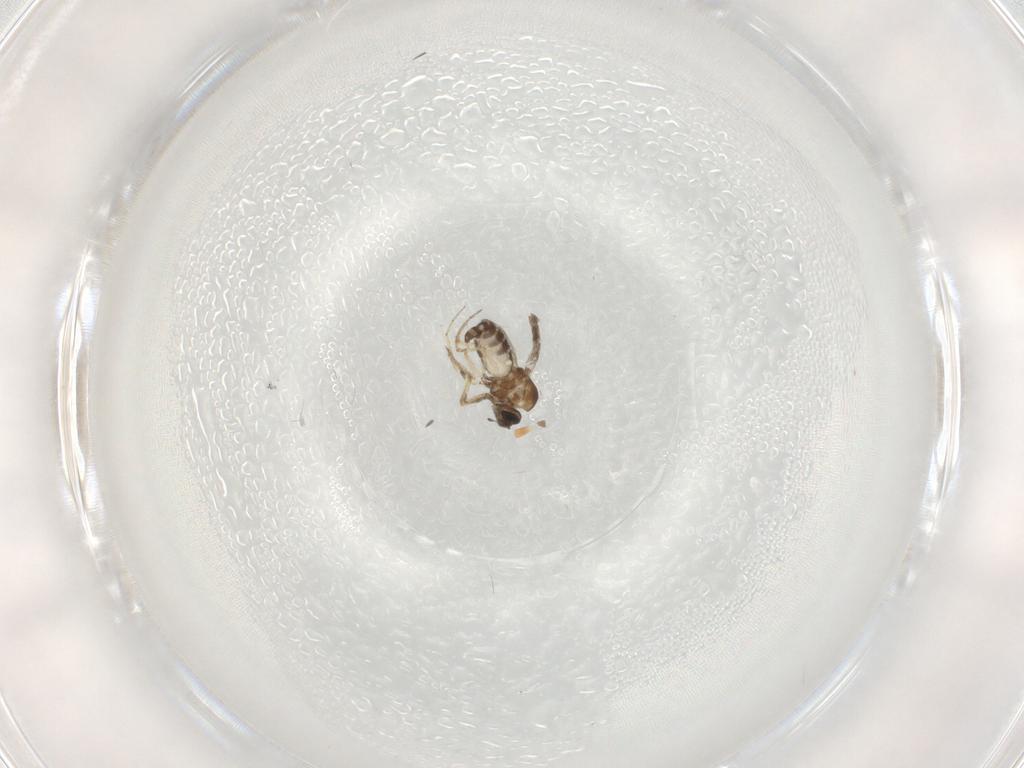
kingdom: Animalia
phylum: Arthropoda
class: Insecta
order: Diptera
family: Ceratopogonidae
